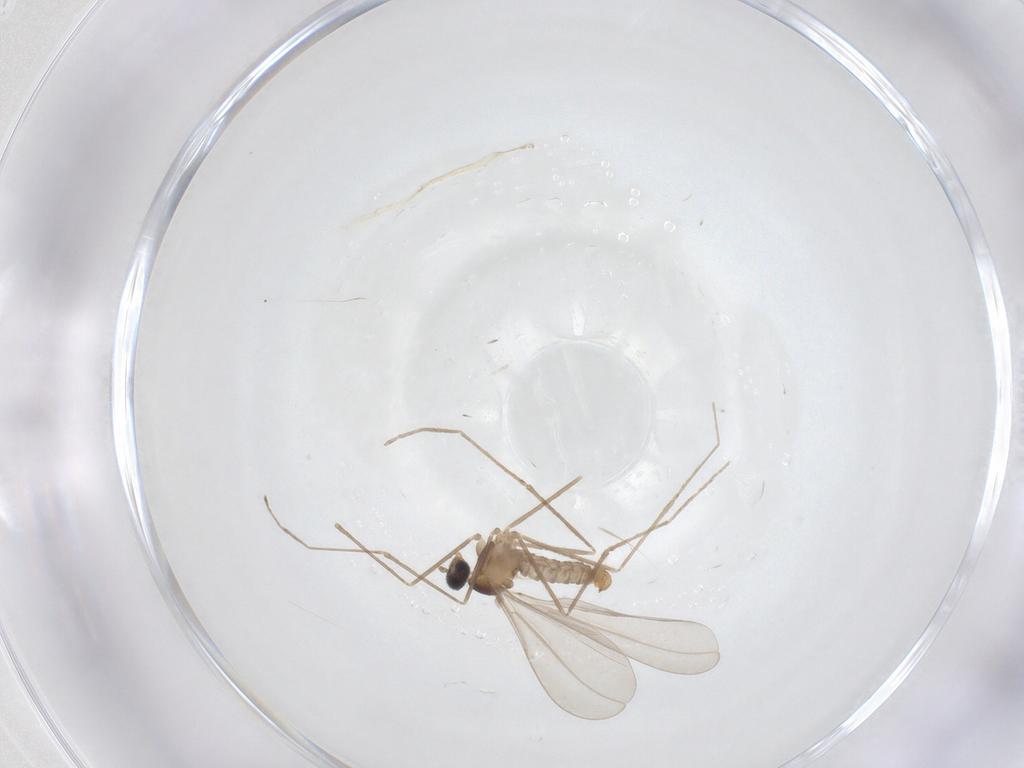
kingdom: Animalia
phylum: Arthropoda
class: Insecta
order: Diptera
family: Cecidomyiidae
